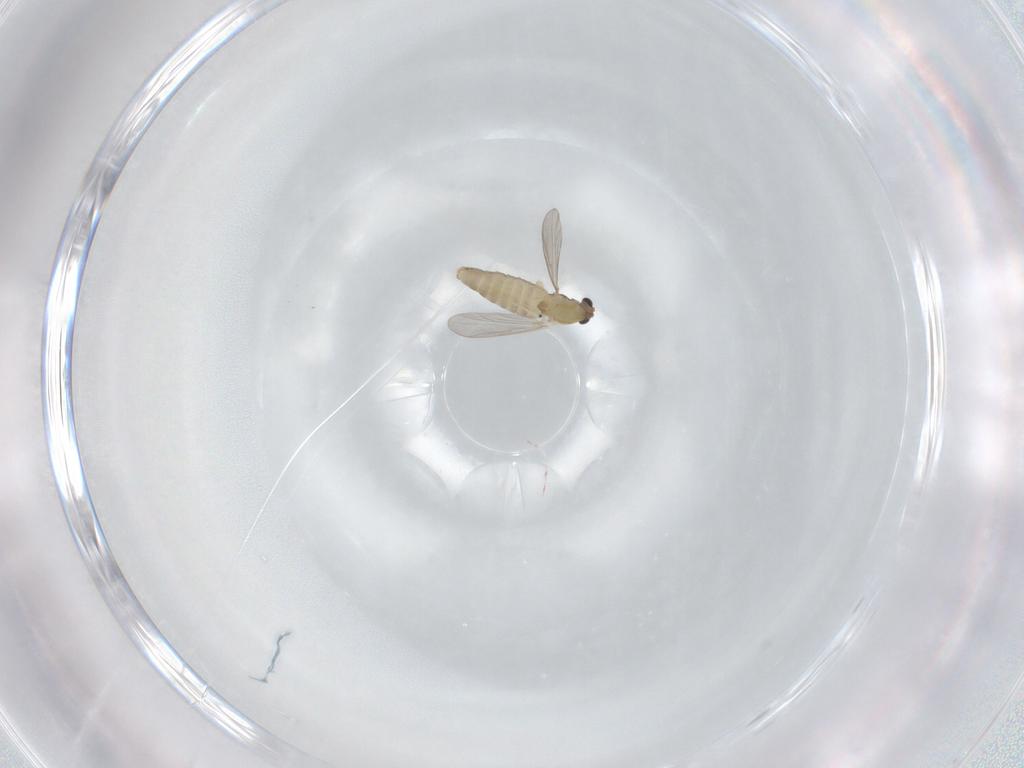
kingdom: Animalia
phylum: Arthropoda
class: Insecta
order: Diptera
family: Chironomidae
